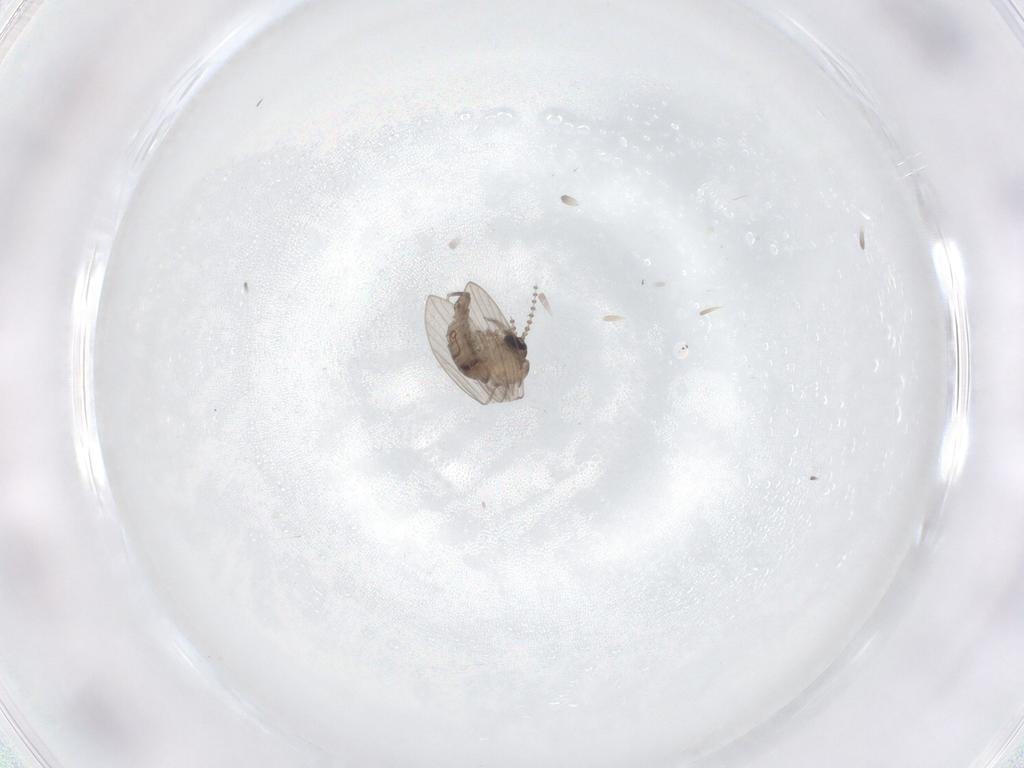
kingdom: Animalia
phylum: Arthropoda
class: Insecta
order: Diptera
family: Psychodidae
